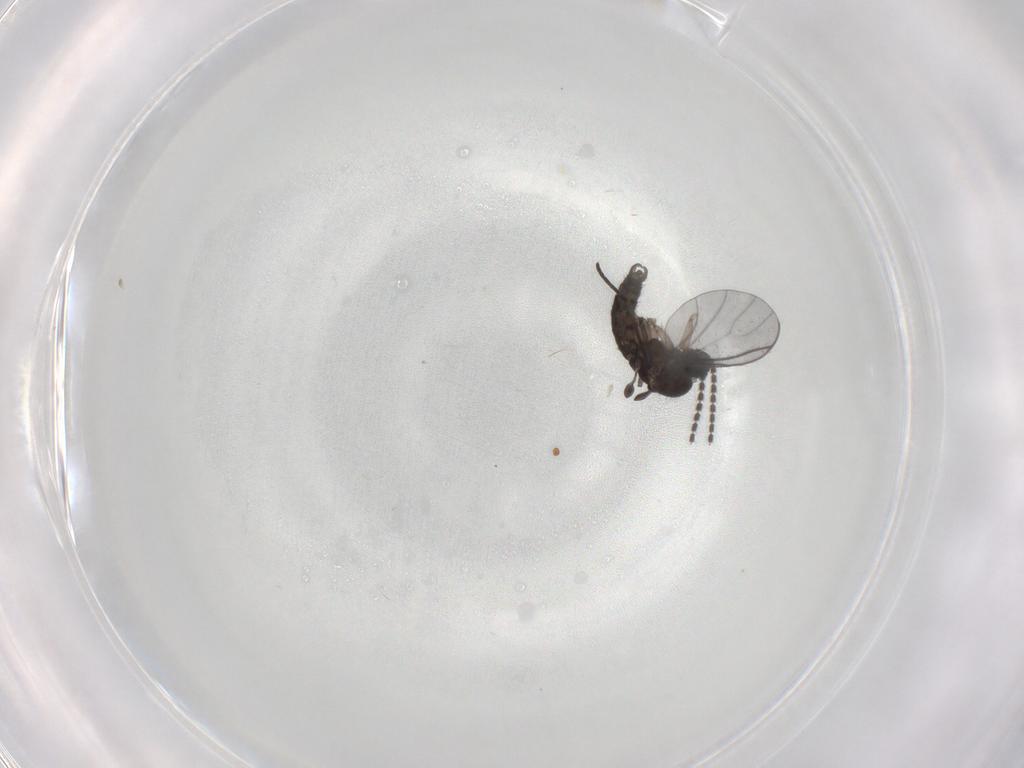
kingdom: Animalia
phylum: Arthropoda
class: Insecta
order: Diptera
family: Keroplatidae
